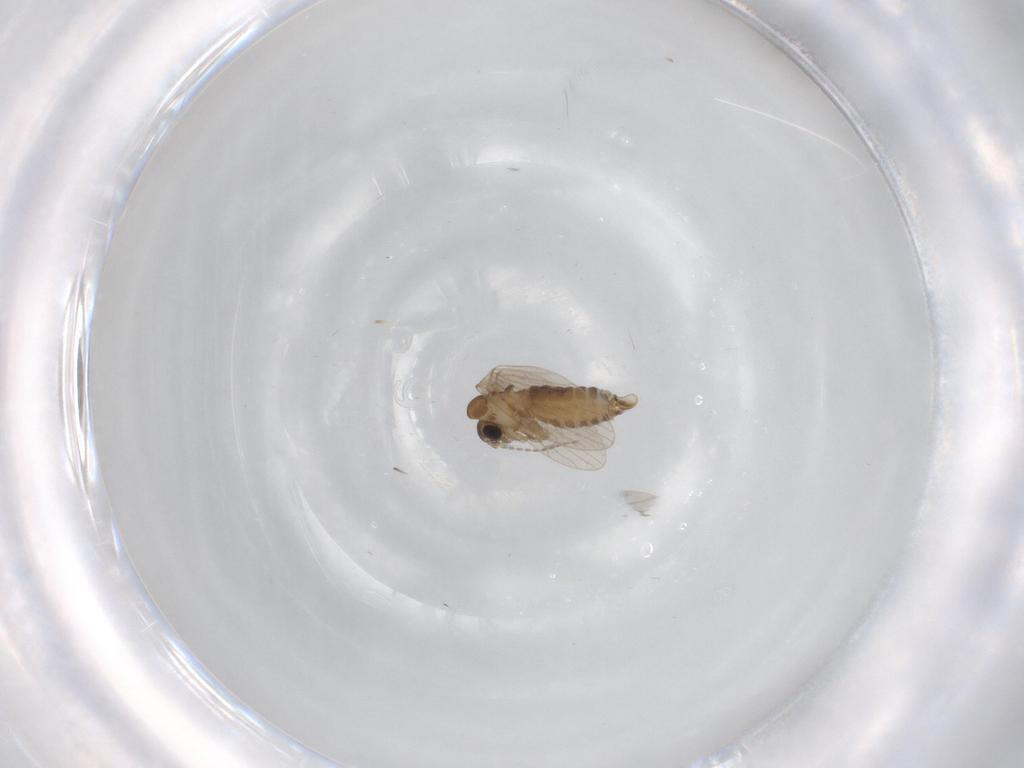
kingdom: Animalia
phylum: Arthropoda
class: Insecta
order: Diptera
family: Psychodidae
